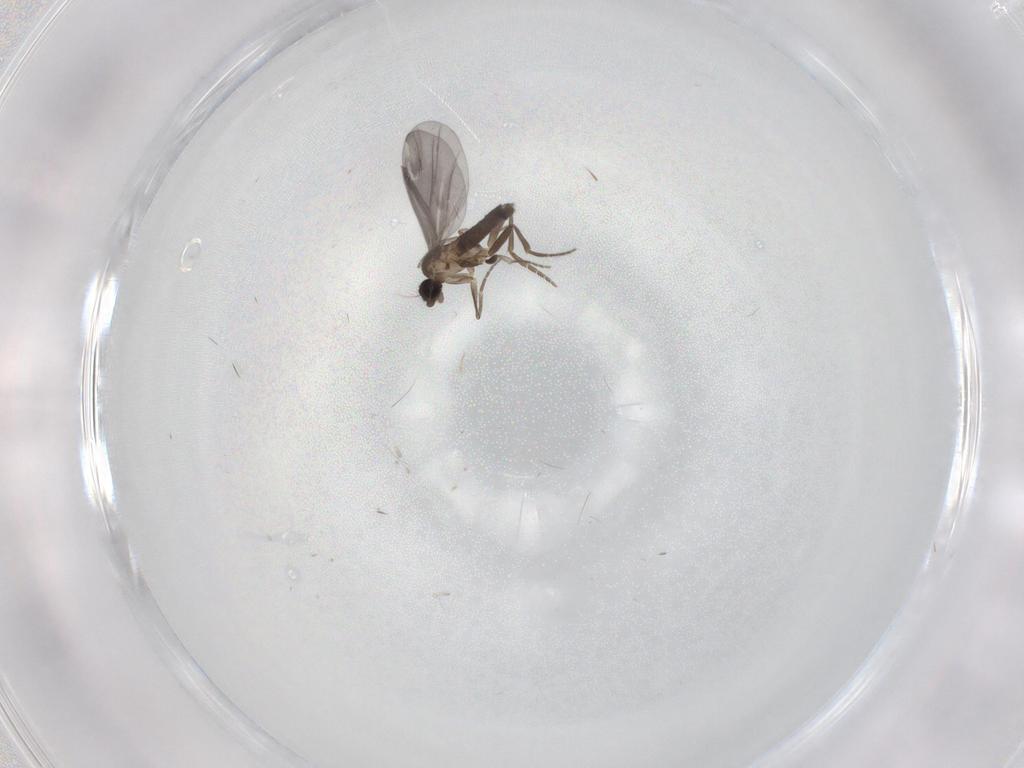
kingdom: Animalia
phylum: Arthropoda
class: Insecta
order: Diptera
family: Phoridae
